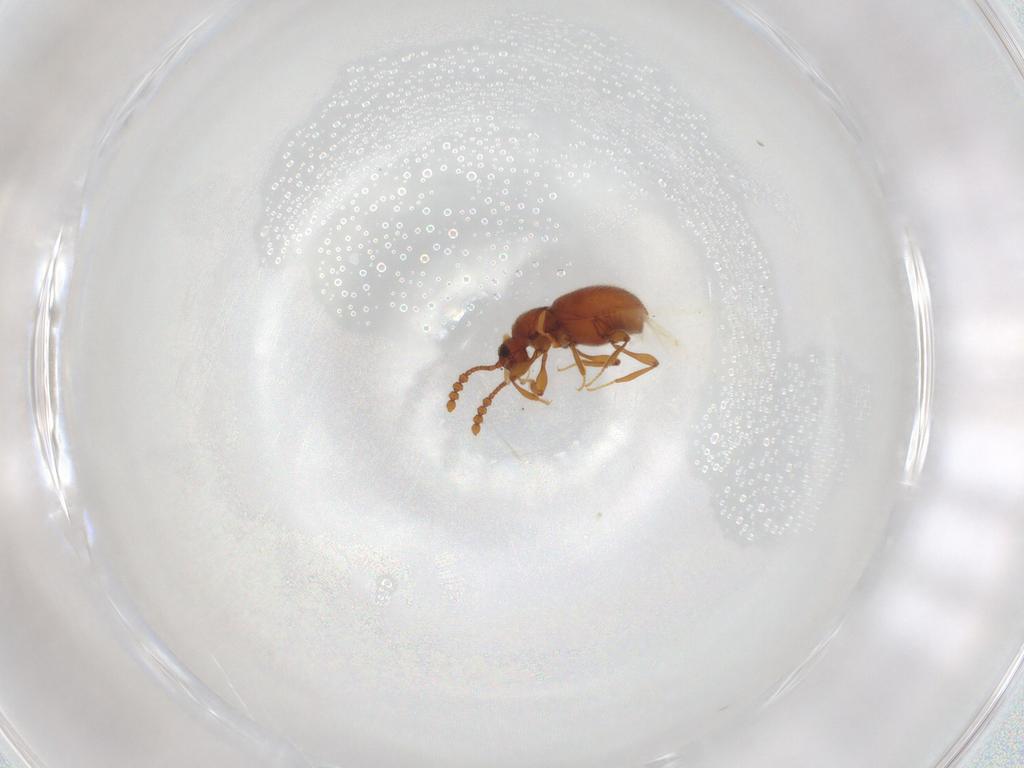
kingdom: Animalia
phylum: Arthropoda
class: Insecta
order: Coleoptera
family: Staphylinidae
